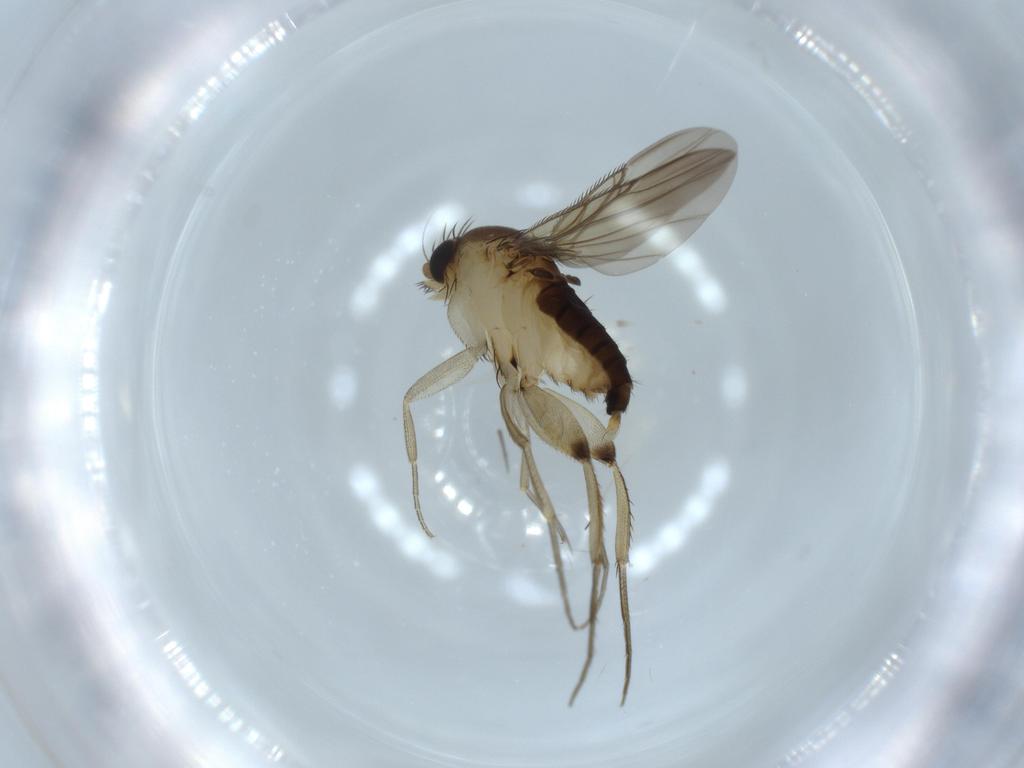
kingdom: Animalia
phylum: Arthropoda
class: Insecta
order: Diptera
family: Phoridae
